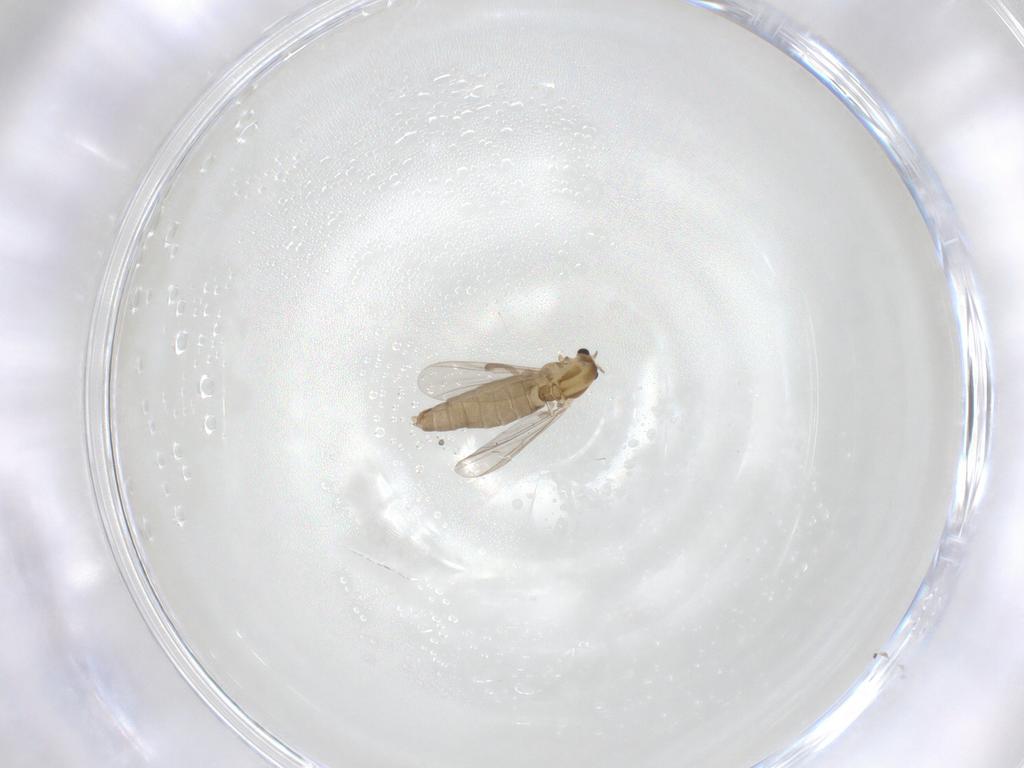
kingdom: Animalia
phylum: Arthropoda
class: Insecta
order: Diptera
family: Chironomidae
